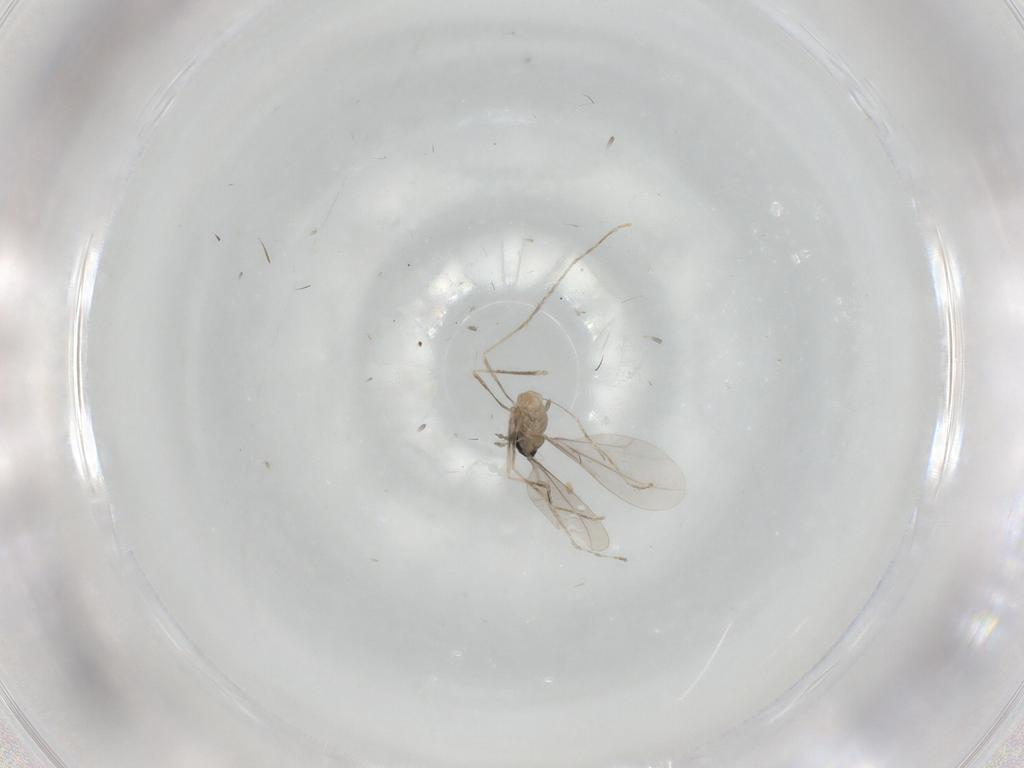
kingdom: Animalia
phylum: Arthropoda
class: Insecta
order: Diptera
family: Cecidomyiidae
